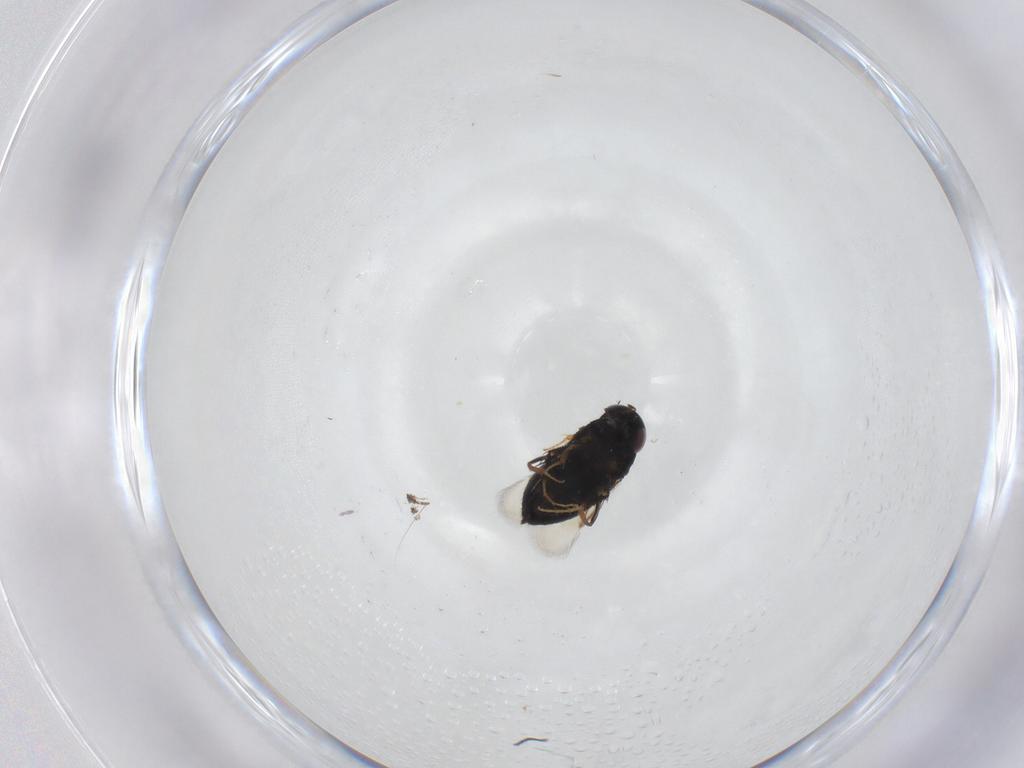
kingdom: Animalia
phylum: Arthropoda
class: Insecta
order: Hymenoptera
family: Signiphoridae
